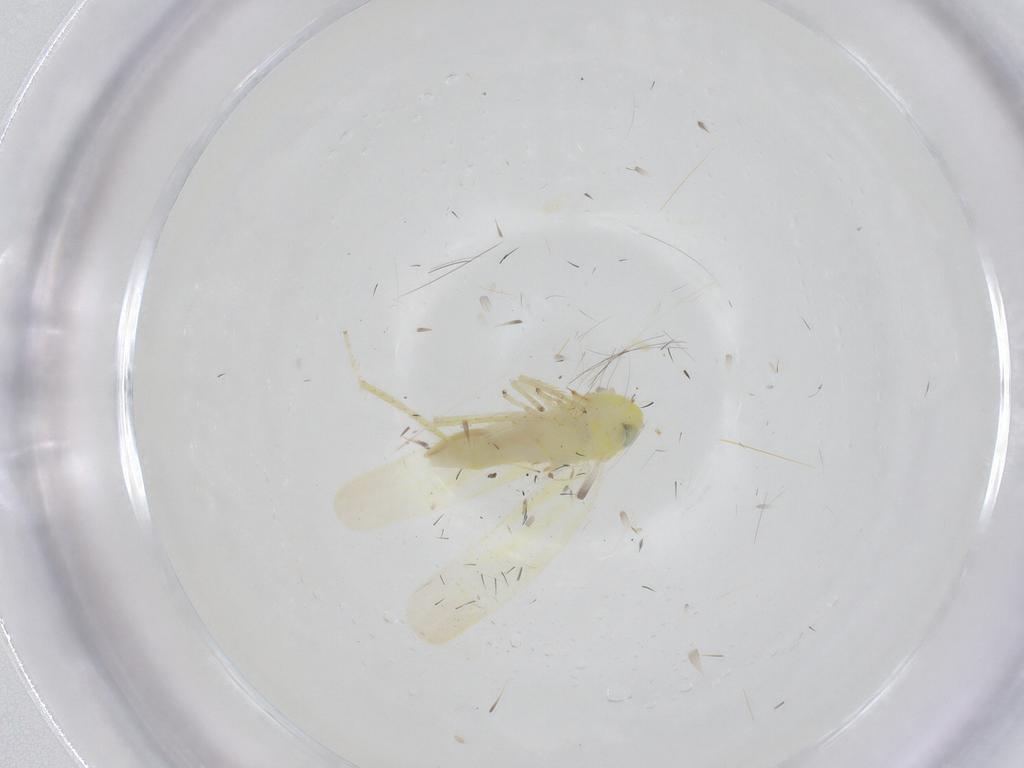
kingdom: Animalia
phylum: Arthropoda
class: Insecta
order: Hemiptera
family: Cicadellidae
